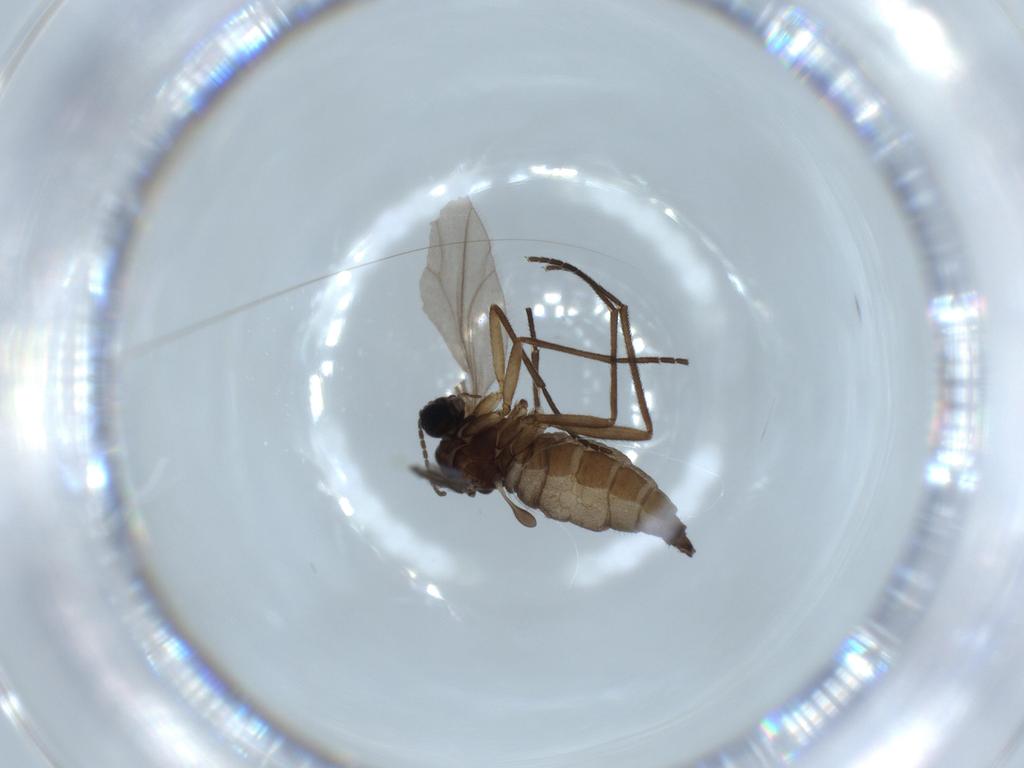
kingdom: Animalia
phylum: Arthropoda
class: Insecta
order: Diptera
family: Sciaridae
